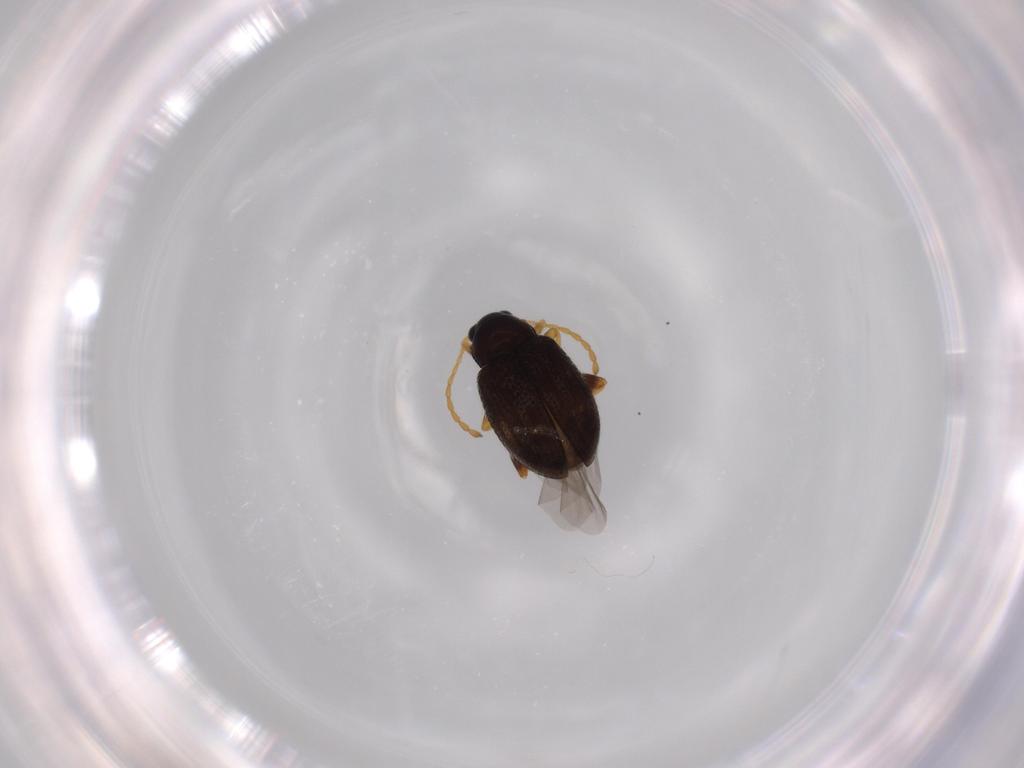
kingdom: Animalia
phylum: Arthropoda
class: Insecta
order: Coleoptera
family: Chrysomelidae
